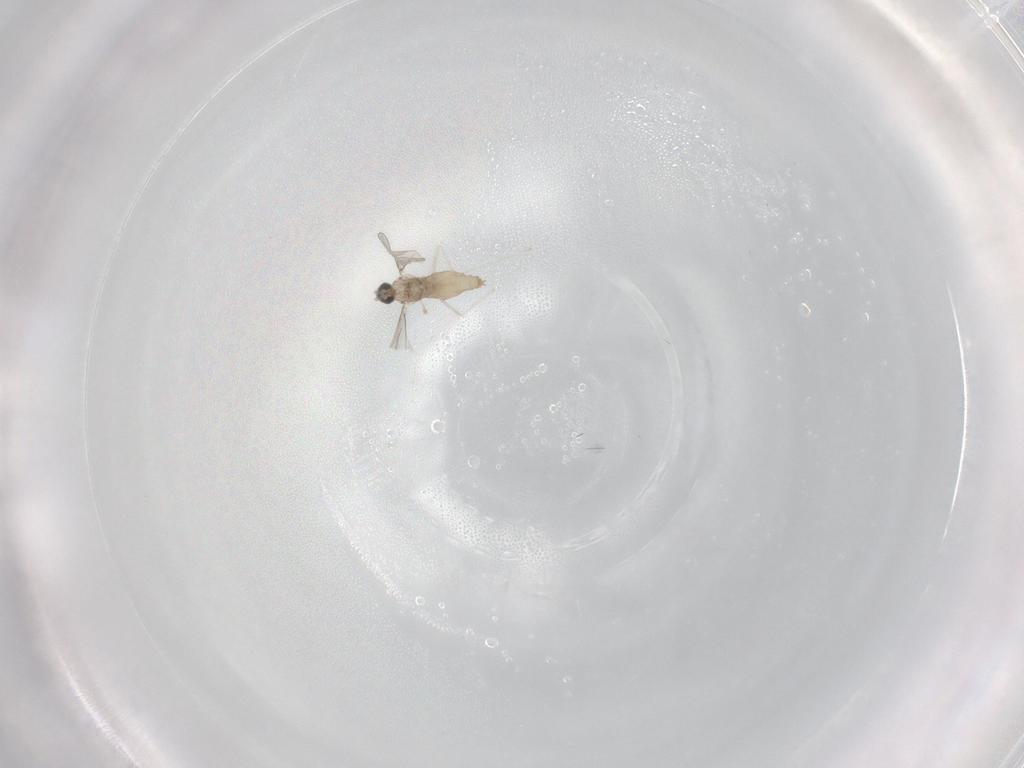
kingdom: Animalia
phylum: Arthropoda
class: Insecta
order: Diptera
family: Sciaridae
